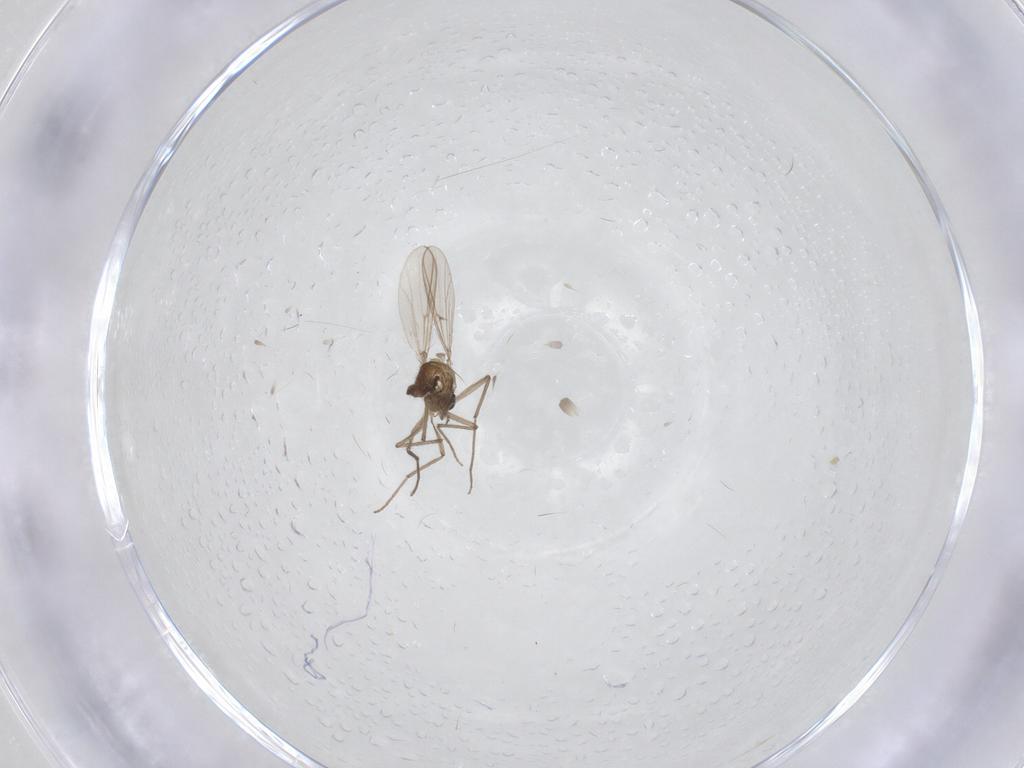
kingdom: Animalia
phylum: Arthropoda
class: Insecta
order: Diptera
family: Chironomidae
